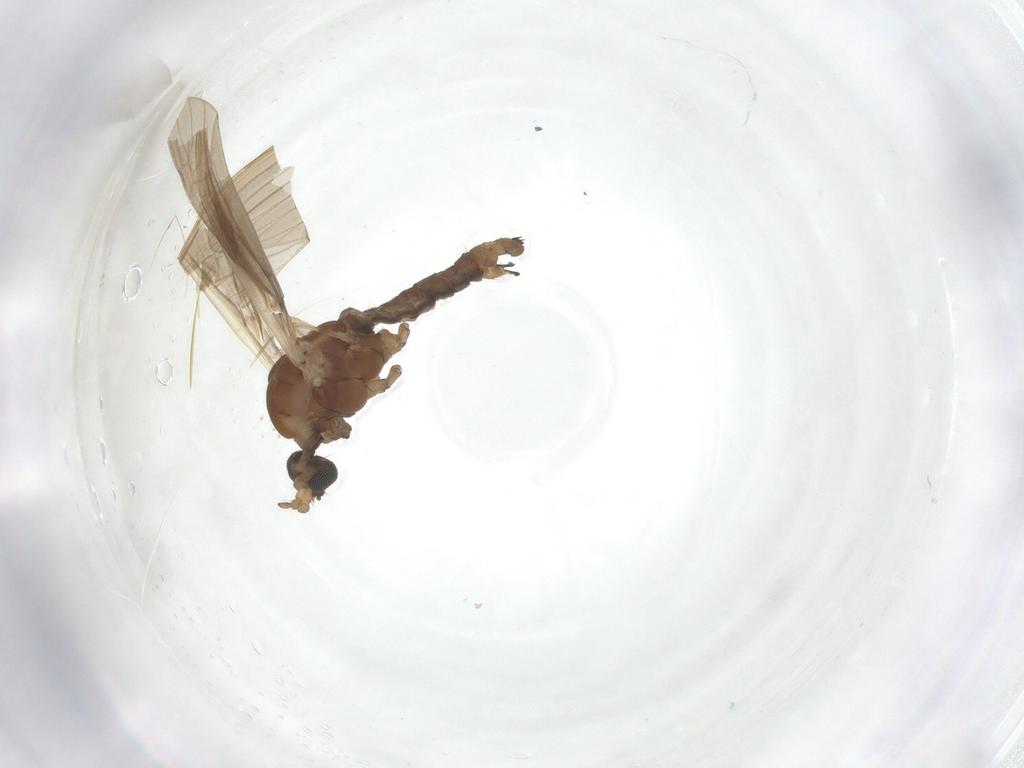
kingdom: Animalia
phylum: Arthropoda
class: Insecta
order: Diptera
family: Limoniidae
